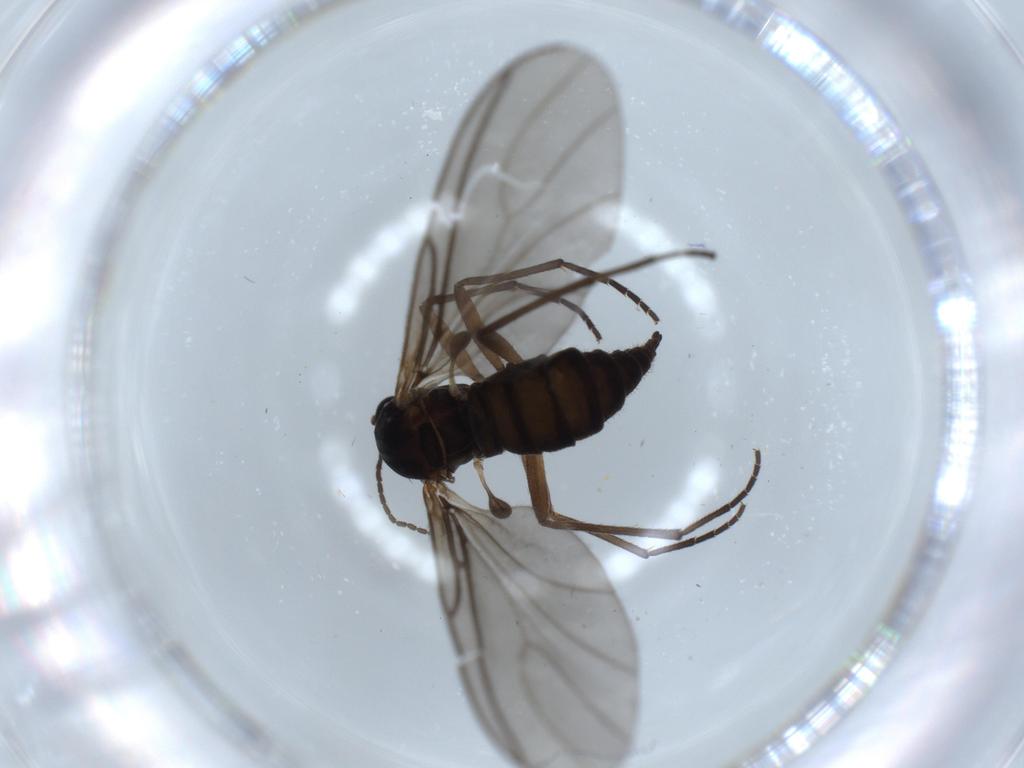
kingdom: Animalia
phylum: Arthropoda
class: Insecta
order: Diptera
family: Sciaridae
